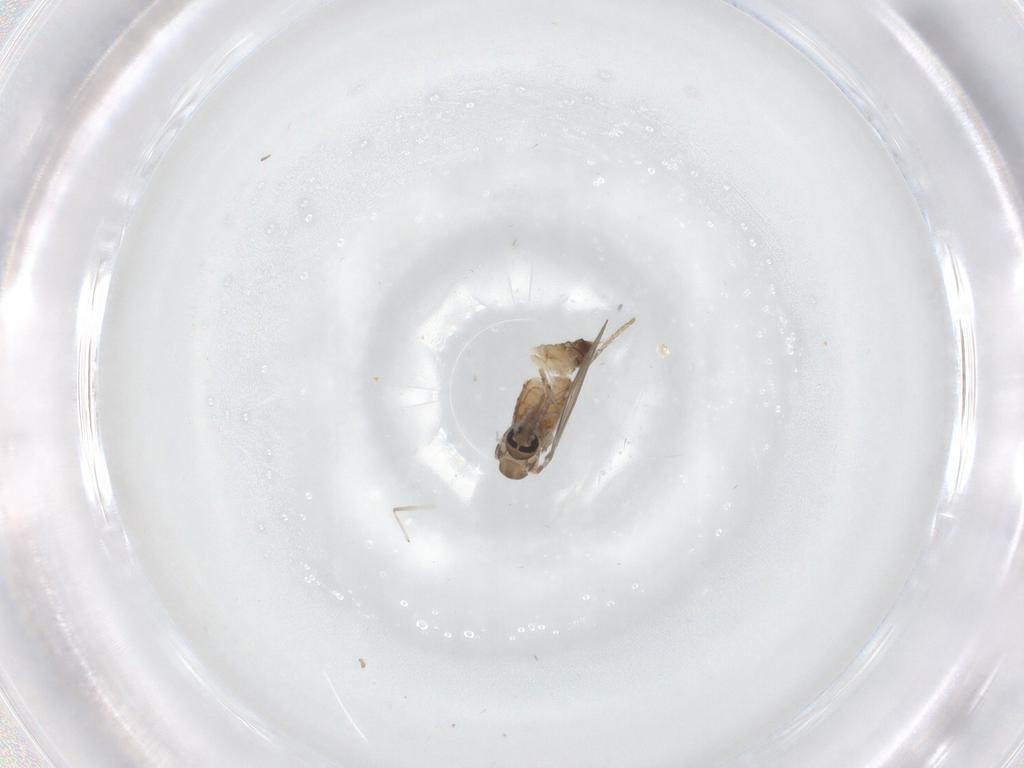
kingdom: Animalia
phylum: Arthropoda
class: Insecta
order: Diptera
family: Psychodidae
